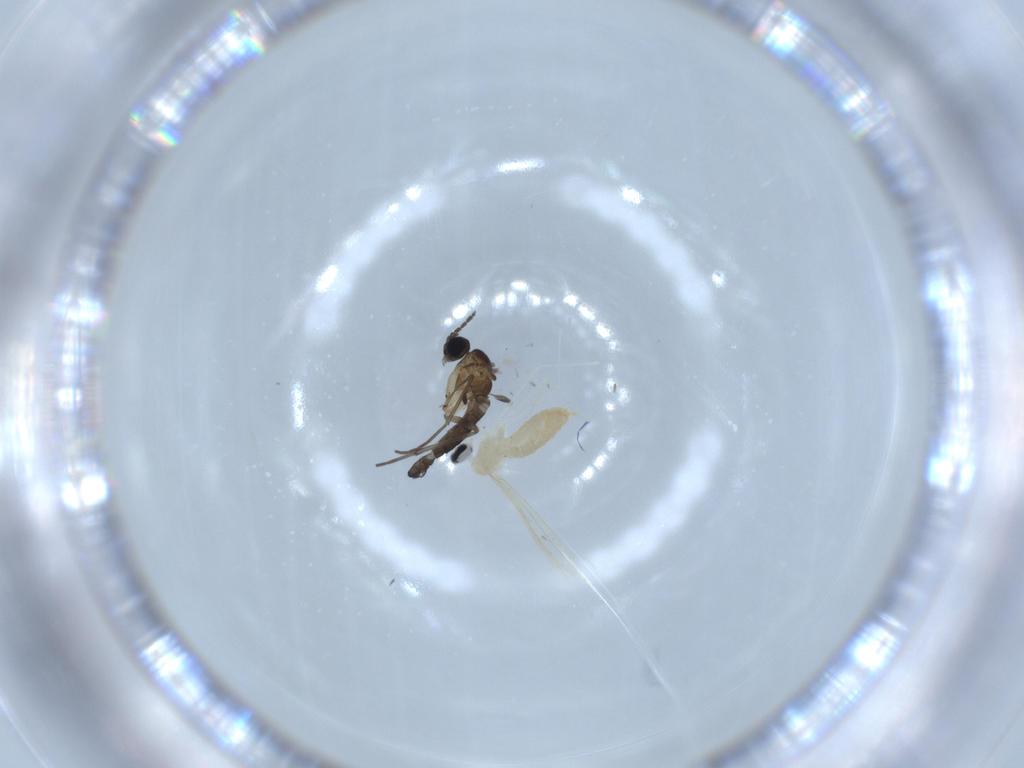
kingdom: Animalia
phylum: Arthropoda
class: Insecta
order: Diptera
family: Sciaridae
